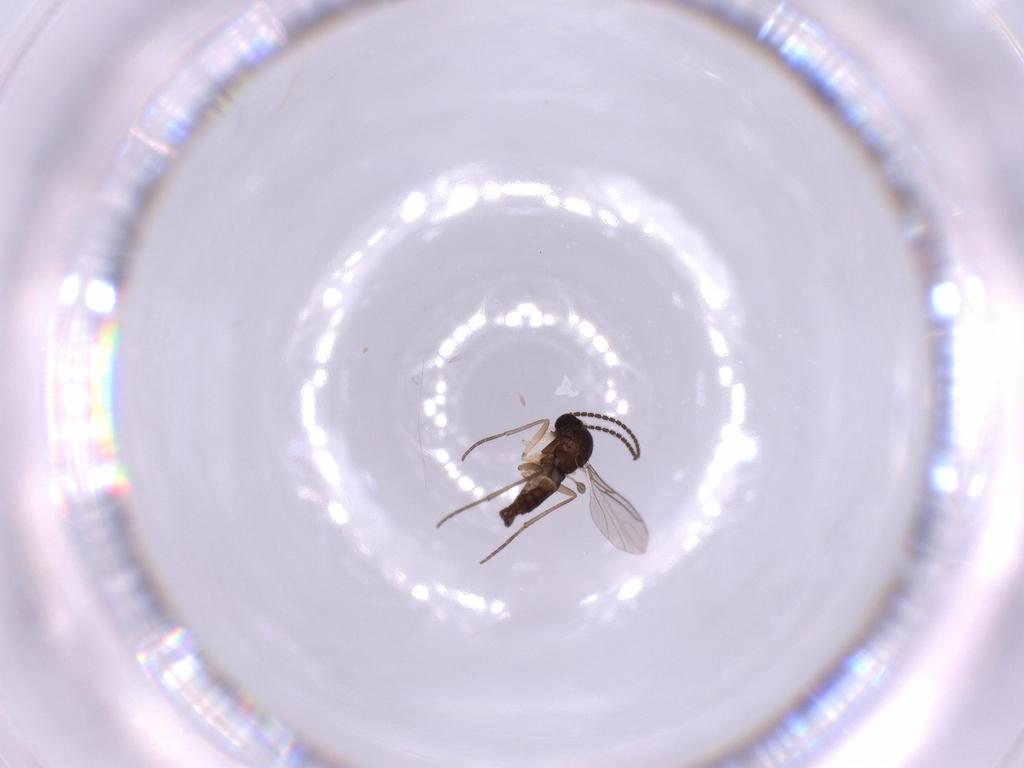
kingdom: Animalia
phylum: Arthropoda
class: Insecta
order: Diptera
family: Sciaridae
